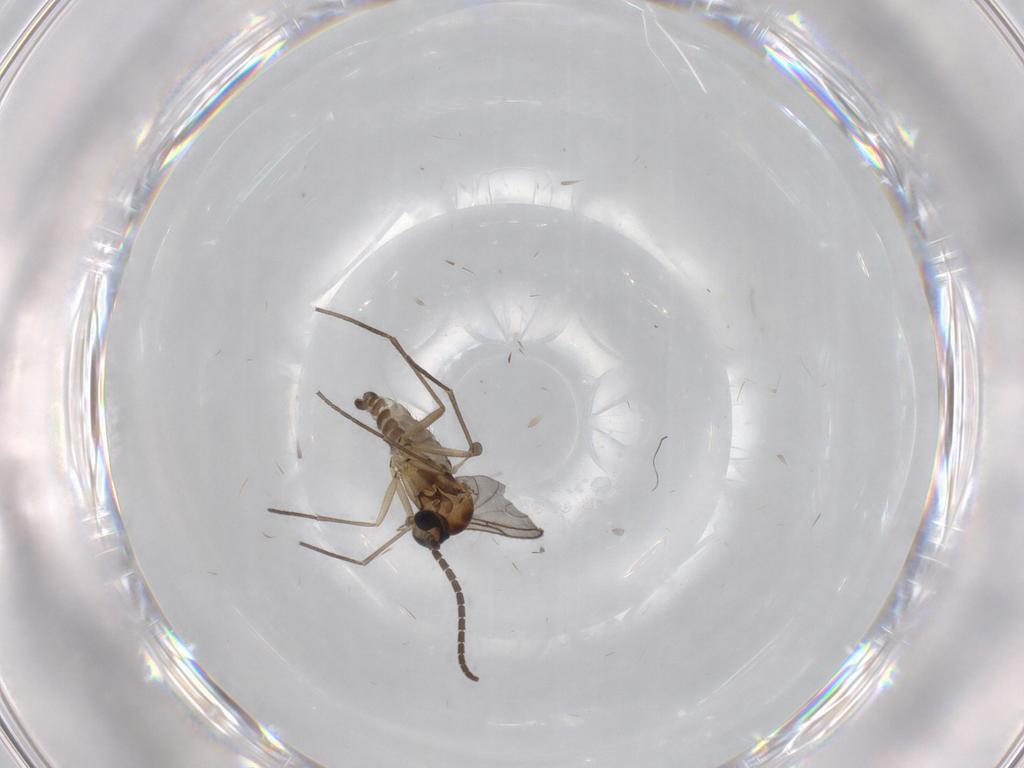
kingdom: Animalia
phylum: Arthropoda
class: Insecta
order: Diptera
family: Sciaridae
